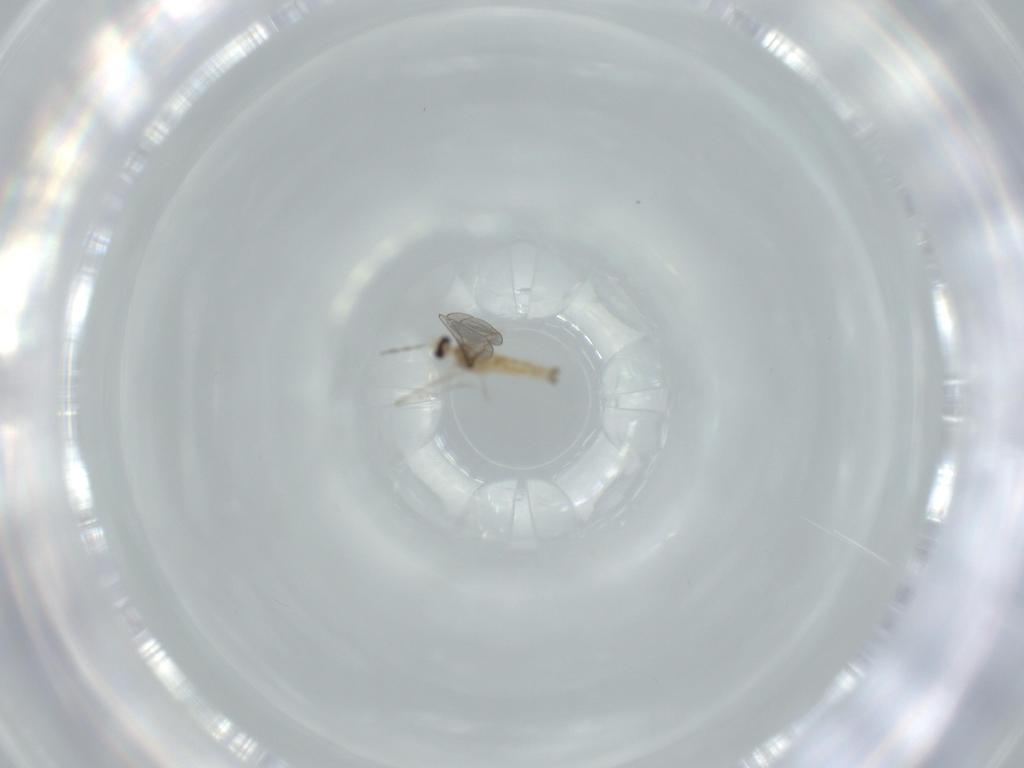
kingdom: Animalia
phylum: Arthropoda
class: Insecta
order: Diptera
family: Cecidomyiidae
